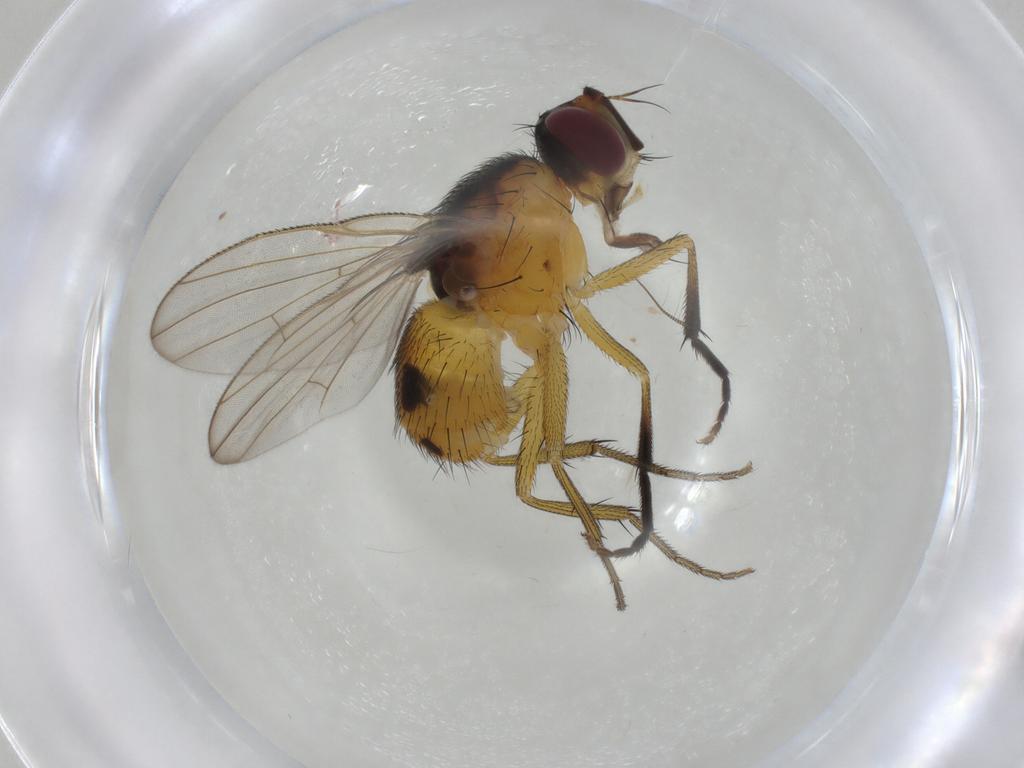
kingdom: Animalia
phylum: Arthropoda
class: Insecta
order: Diptera
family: Muscidae
